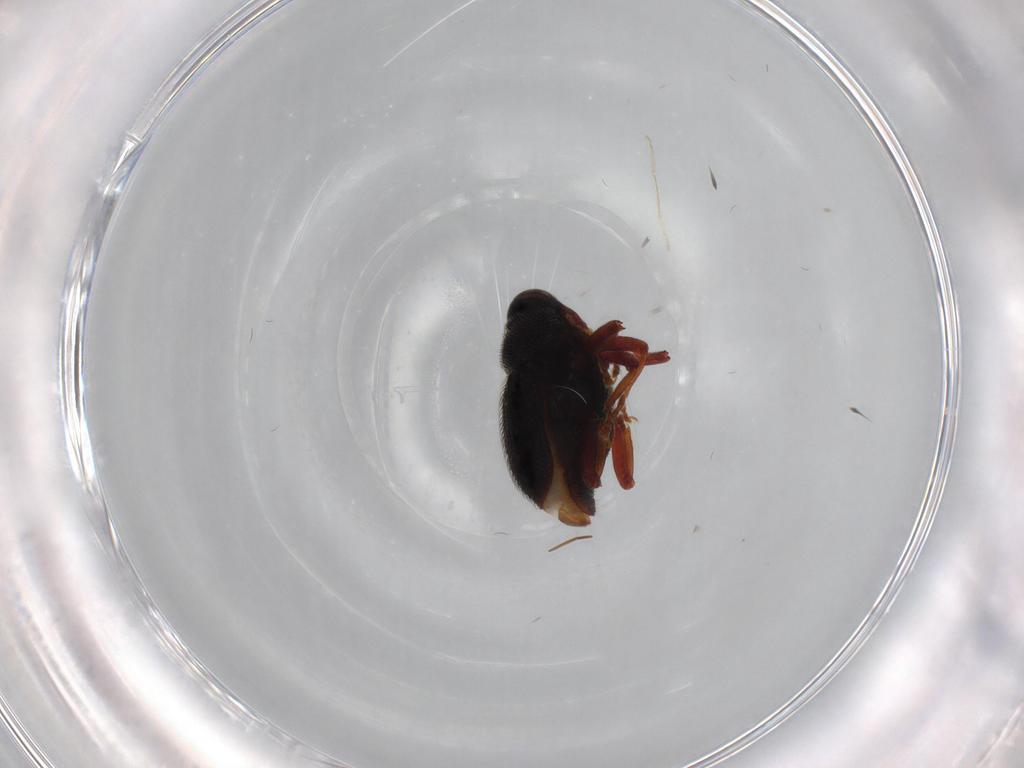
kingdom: Animalia
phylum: Arthropoda
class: Insecta
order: Coleoptera
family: Curculionidae
